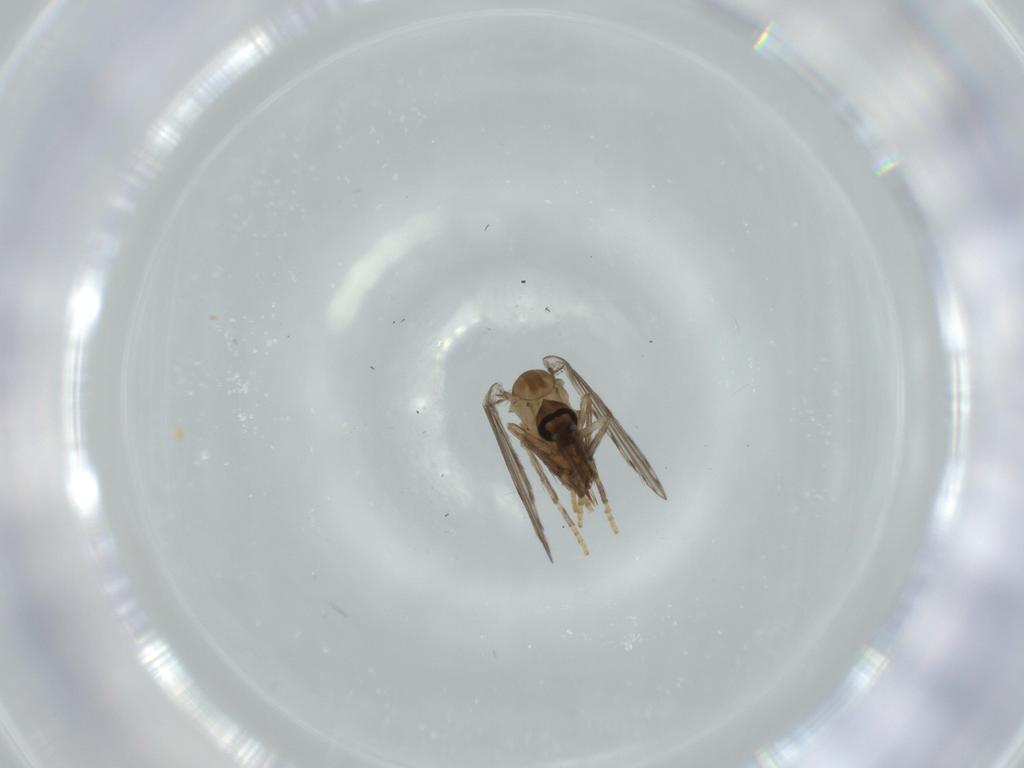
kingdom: Animalia
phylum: Arthropoda
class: Insecta
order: Diptera
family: Psychodidae
